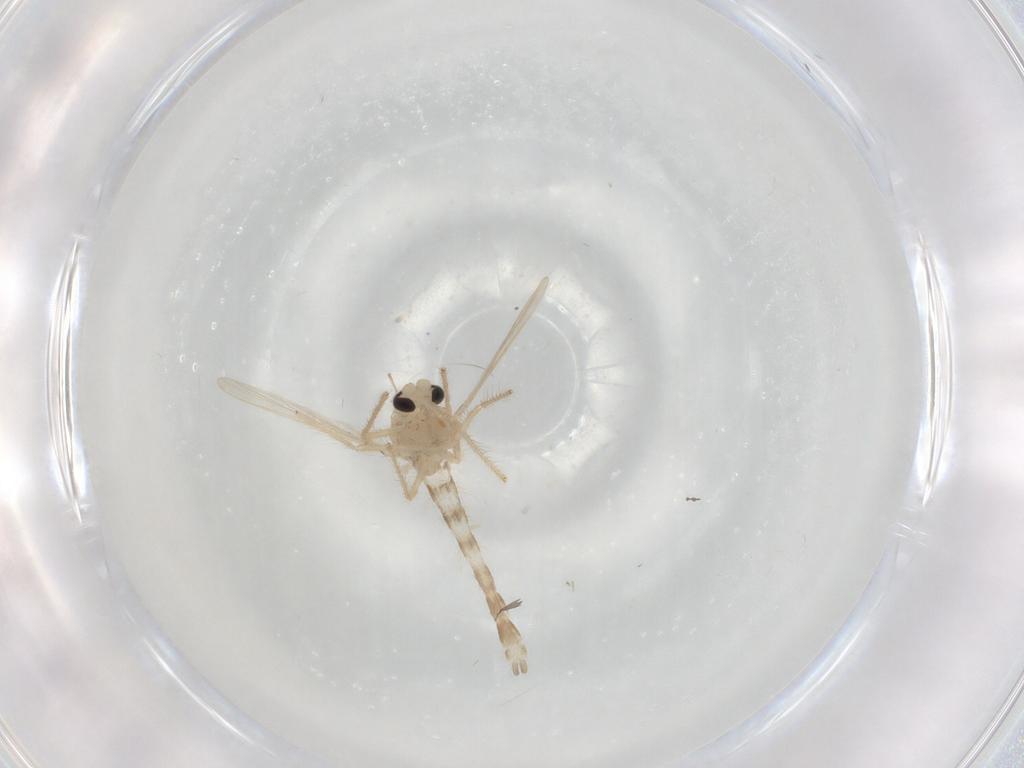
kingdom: Animalia
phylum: Arthropoda
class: Insecta
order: Diptera
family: Chironomidae
